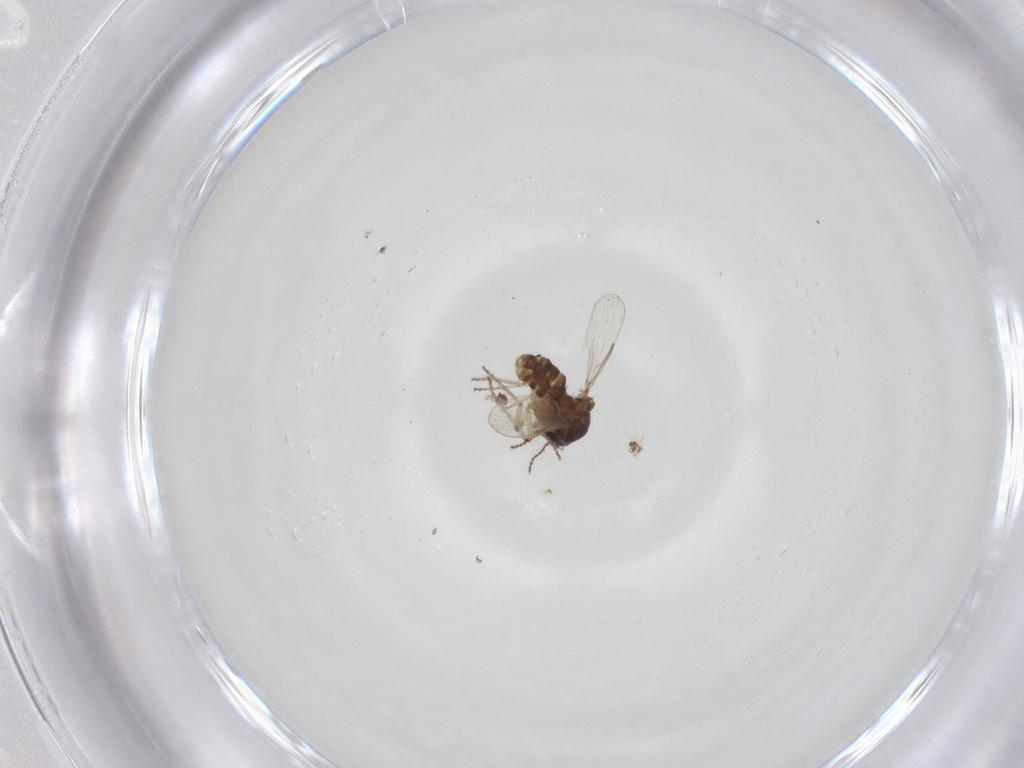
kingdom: Animalia
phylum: Arthropoda
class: Insecta
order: Diptera
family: Ceratopogonidae
